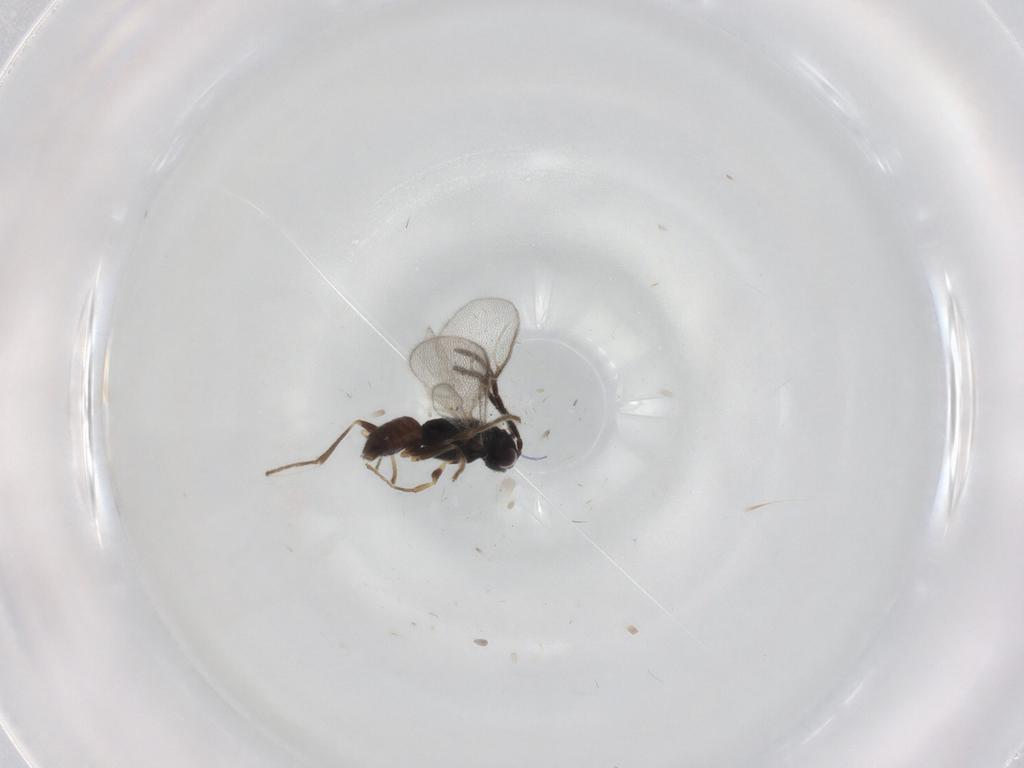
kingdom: Animalia
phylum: Arthropoda
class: Insecta
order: Hymenoptera
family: Dryinidae
